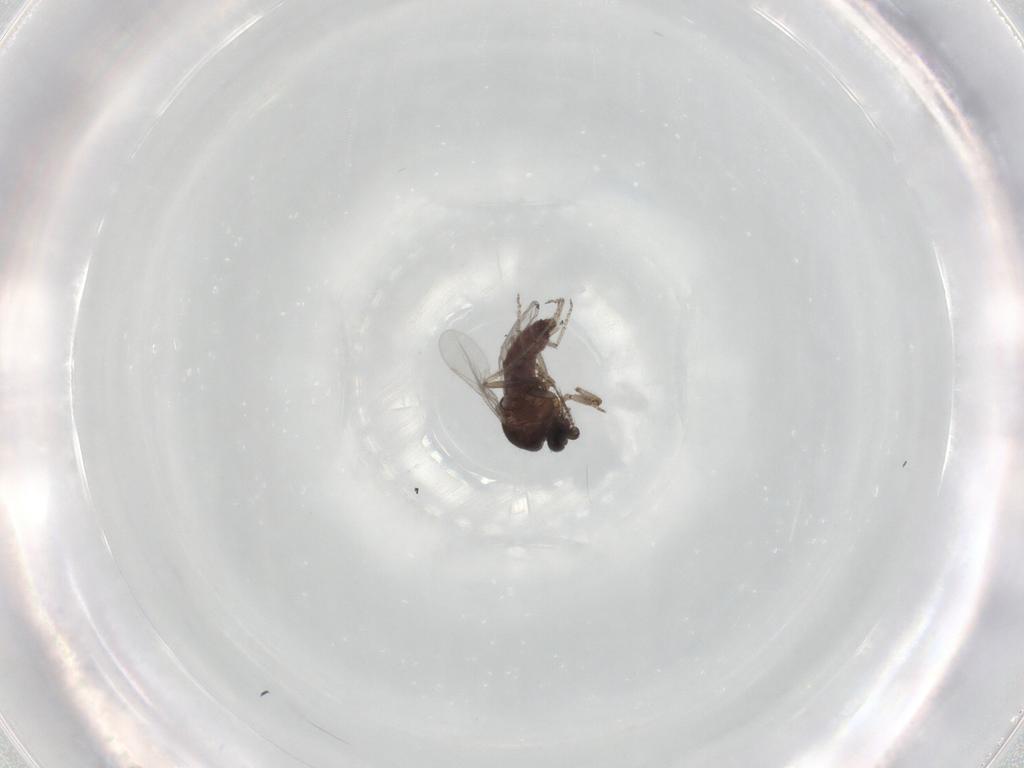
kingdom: Animalia
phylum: Arthropoda
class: Insecta
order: Diptera
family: Ceratopogonidae
